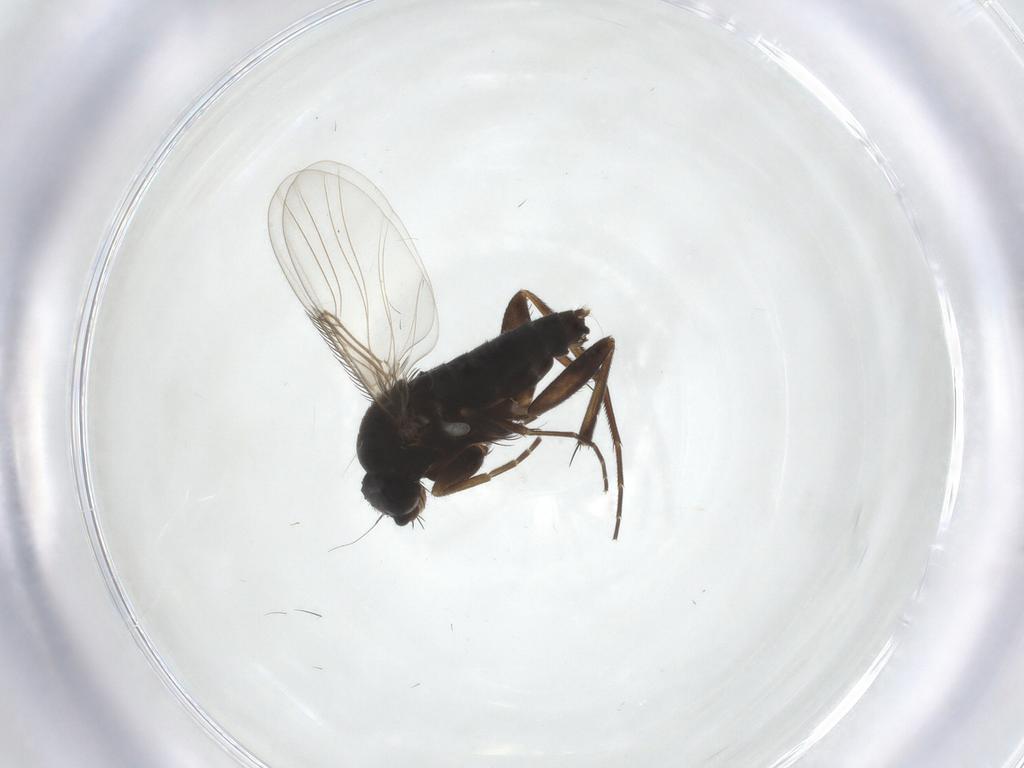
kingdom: Animalia
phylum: Arthropoda
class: Insecta
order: Diptera
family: Phoridae
